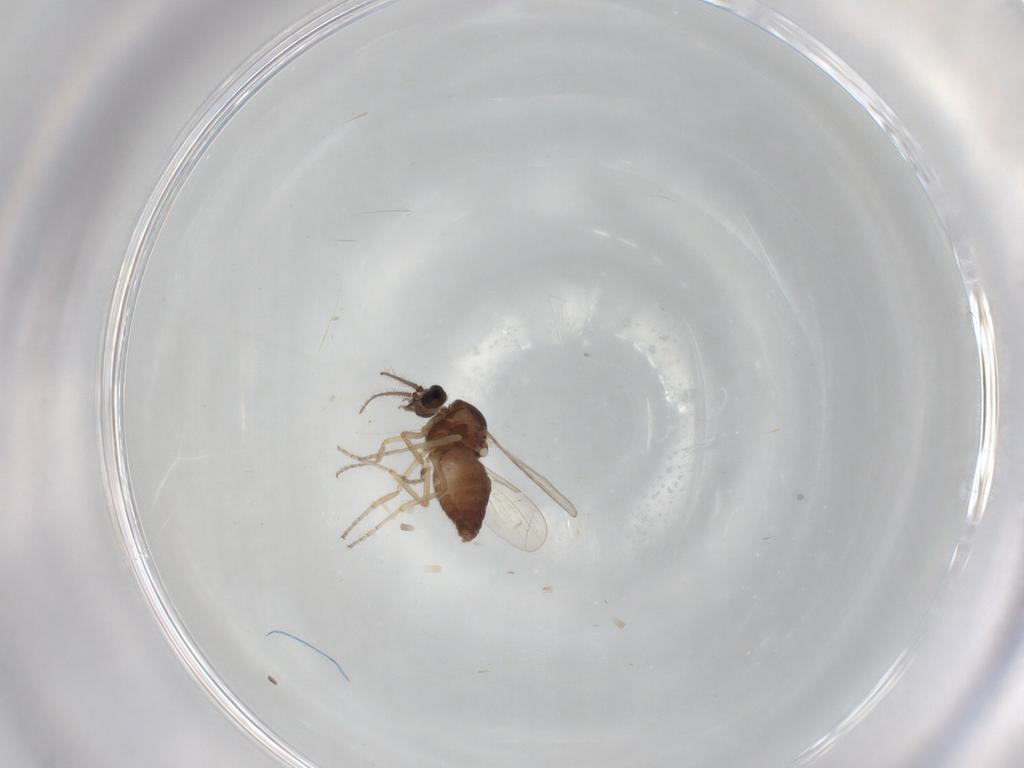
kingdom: Animalia
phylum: Arthropoda
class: Insecta
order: Diptera
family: Ceratopogonidae
